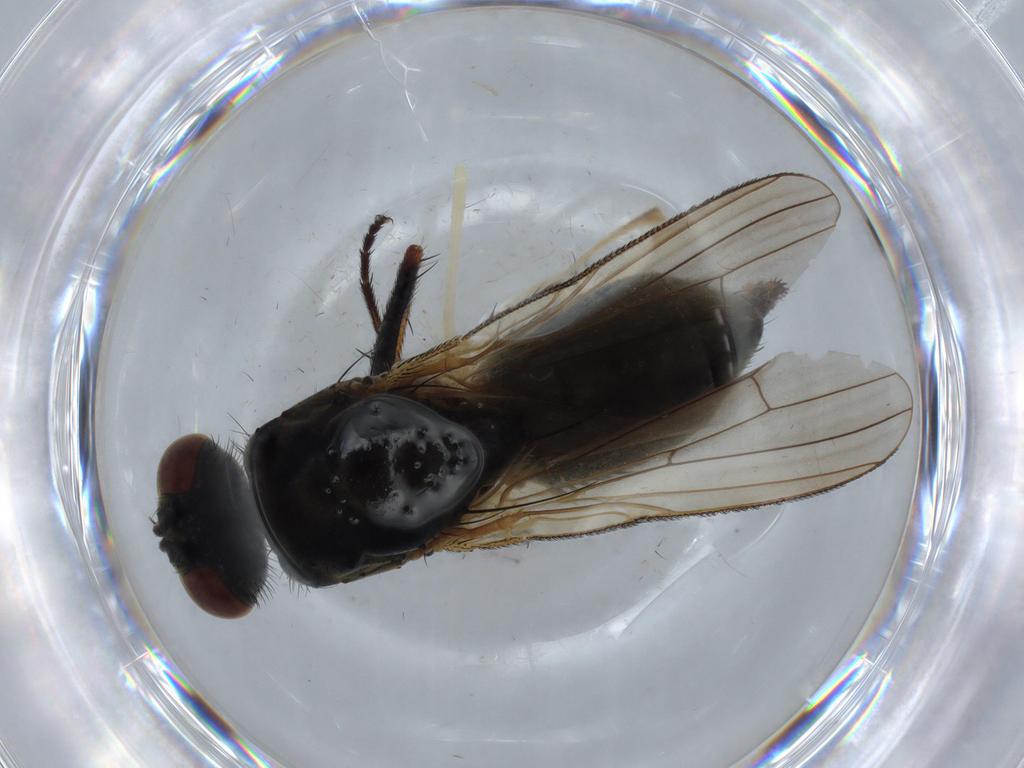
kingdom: Animalia
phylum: Arthropoda
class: Insecta
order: Diptera
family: Muscidae
